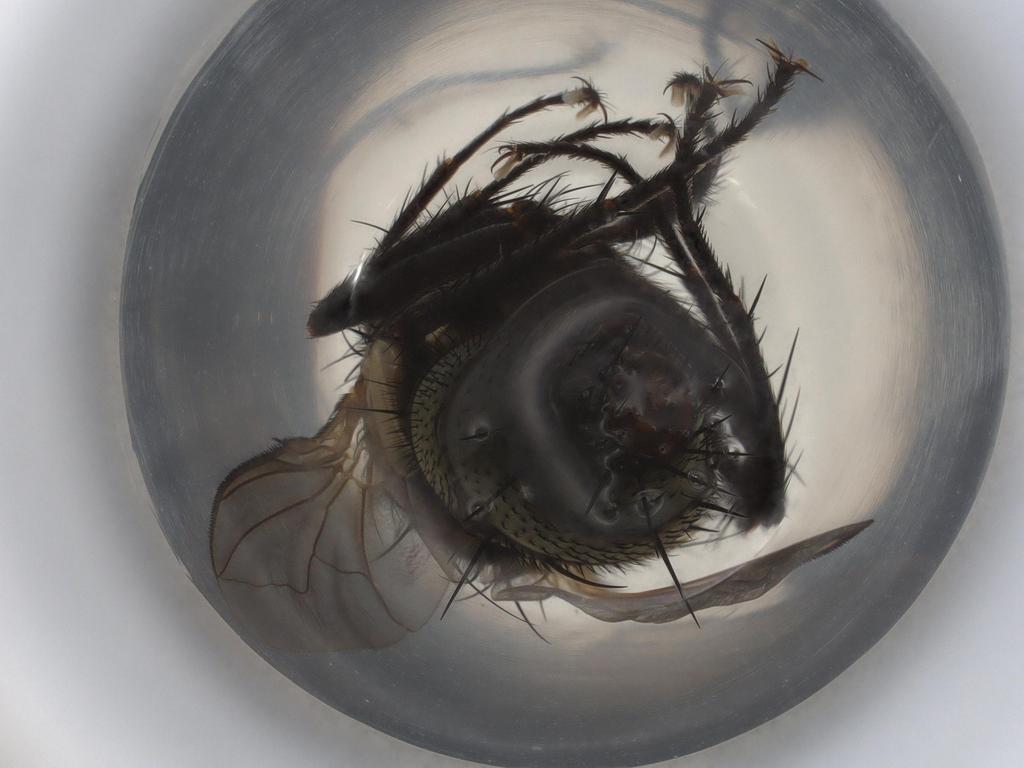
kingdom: Animalia
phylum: Arthropoda
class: Insecta
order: Diptera
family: Tachinidae
